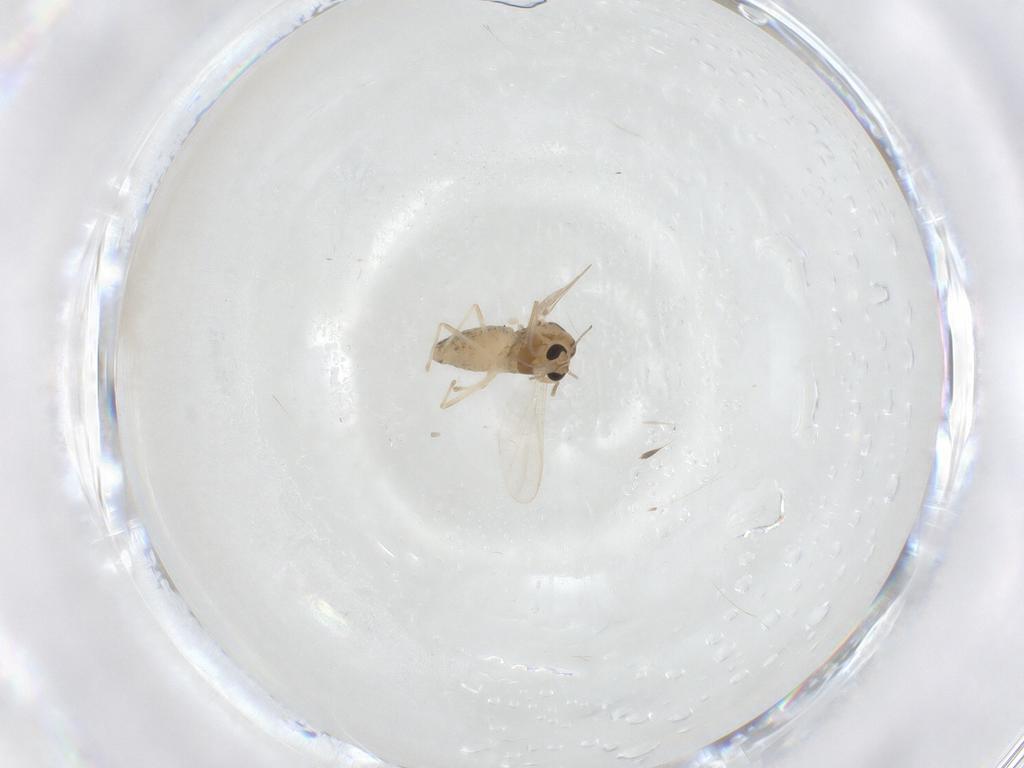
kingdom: Animalia
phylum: Arthropoda
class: Insecta
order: Diptera
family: Chironomidae
